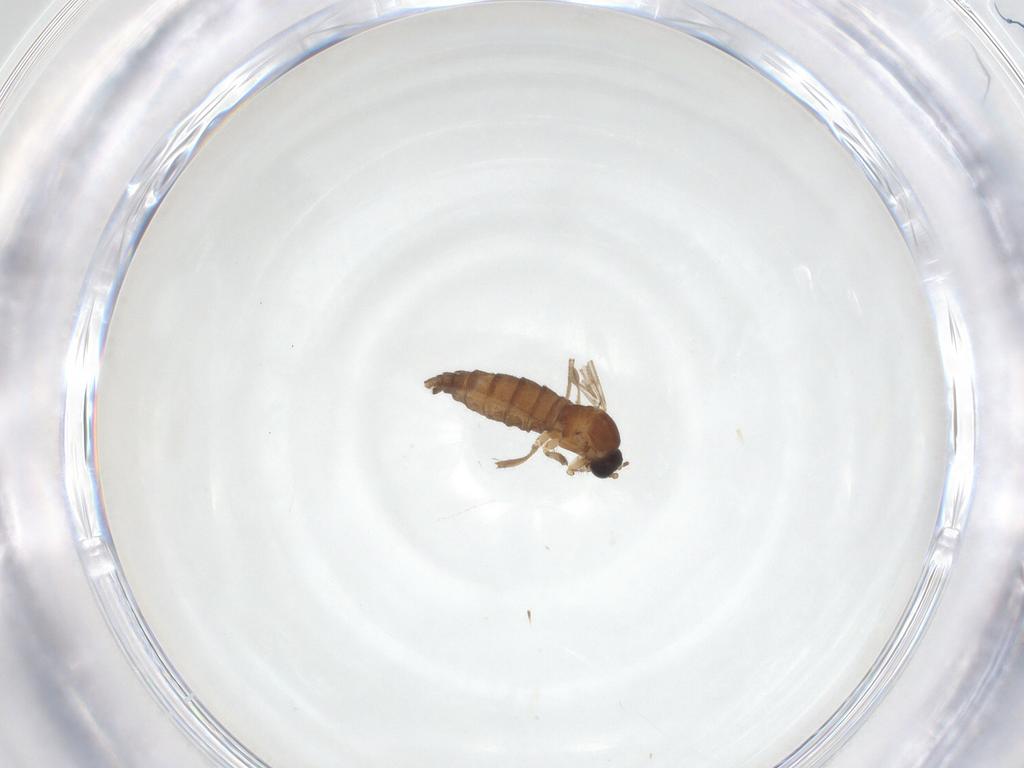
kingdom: Animalia
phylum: Arthropoda
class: Insecta
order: Diptera
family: Sciaridae
